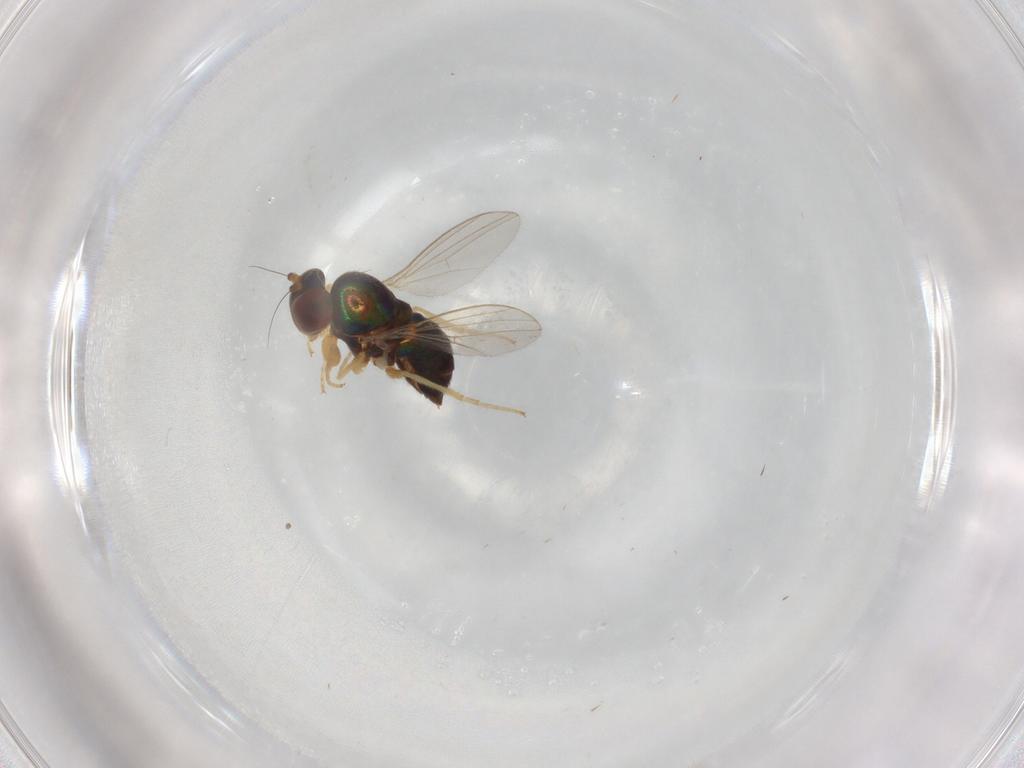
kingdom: Animalia
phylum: Arthropoda
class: Insecta
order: Diptera
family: Dolichopodidae
